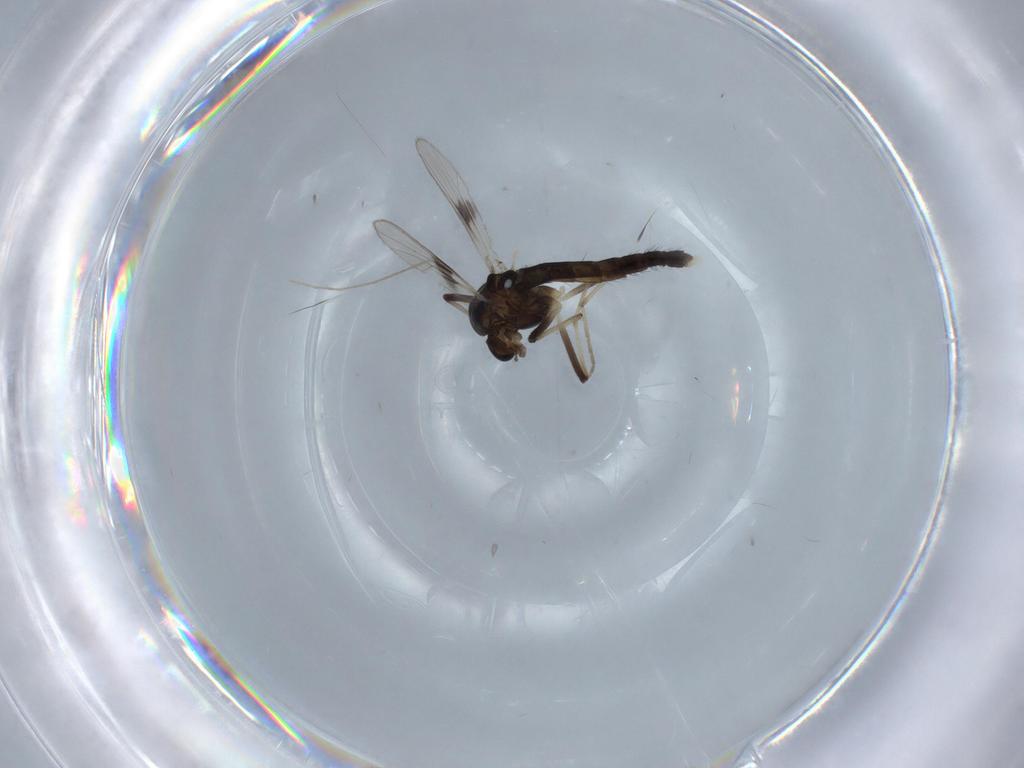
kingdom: Animalia
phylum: Arthropoda
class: Insecta
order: Diptera
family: Chironomidae
